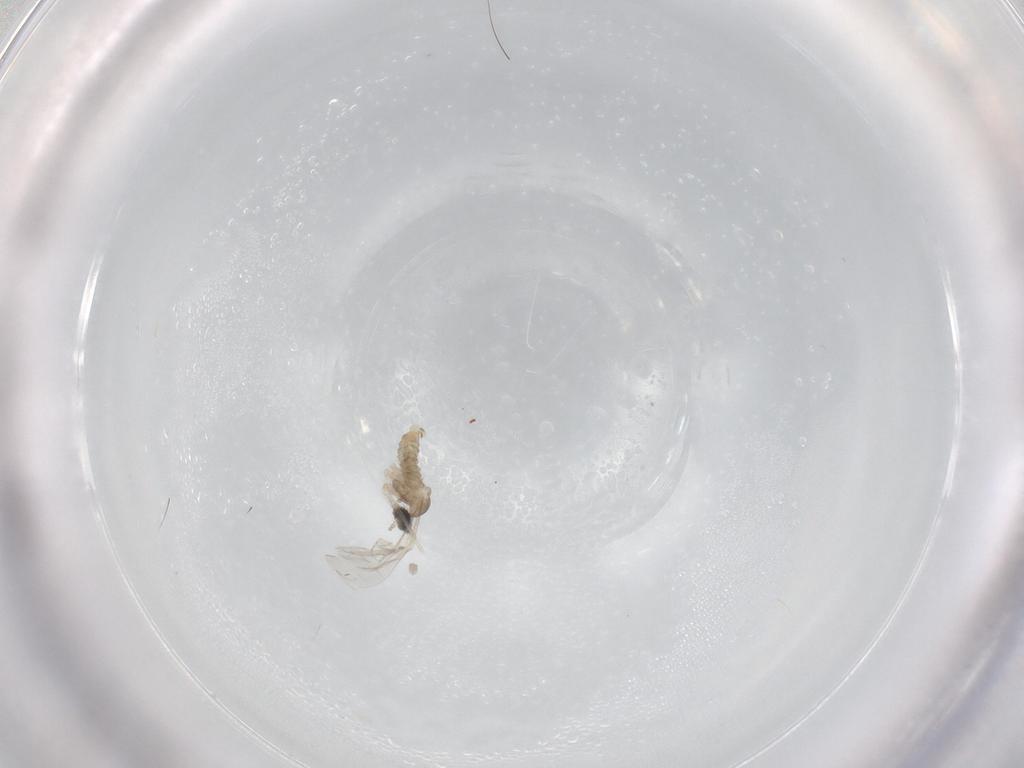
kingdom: Animalia
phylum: Arthropoda
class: Insecta
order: Diptera
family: Cecidomyiidae
